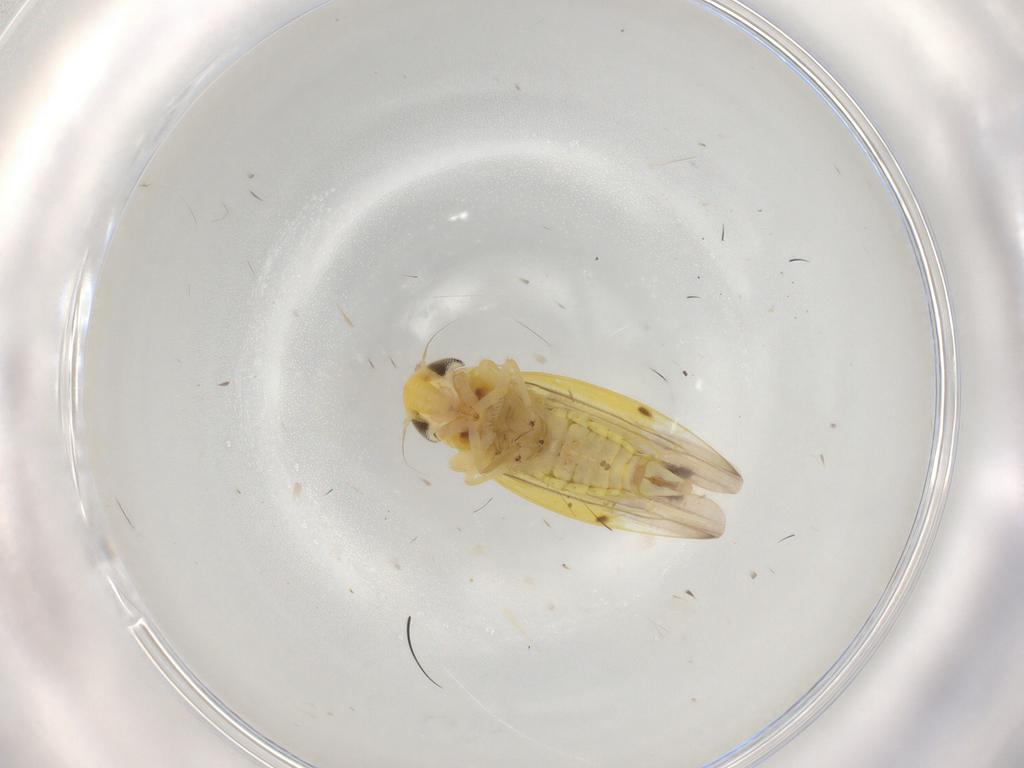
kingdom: Animalia
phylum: Arthropoda
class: Insecta
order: Hemiptera
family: Cicadellidae
